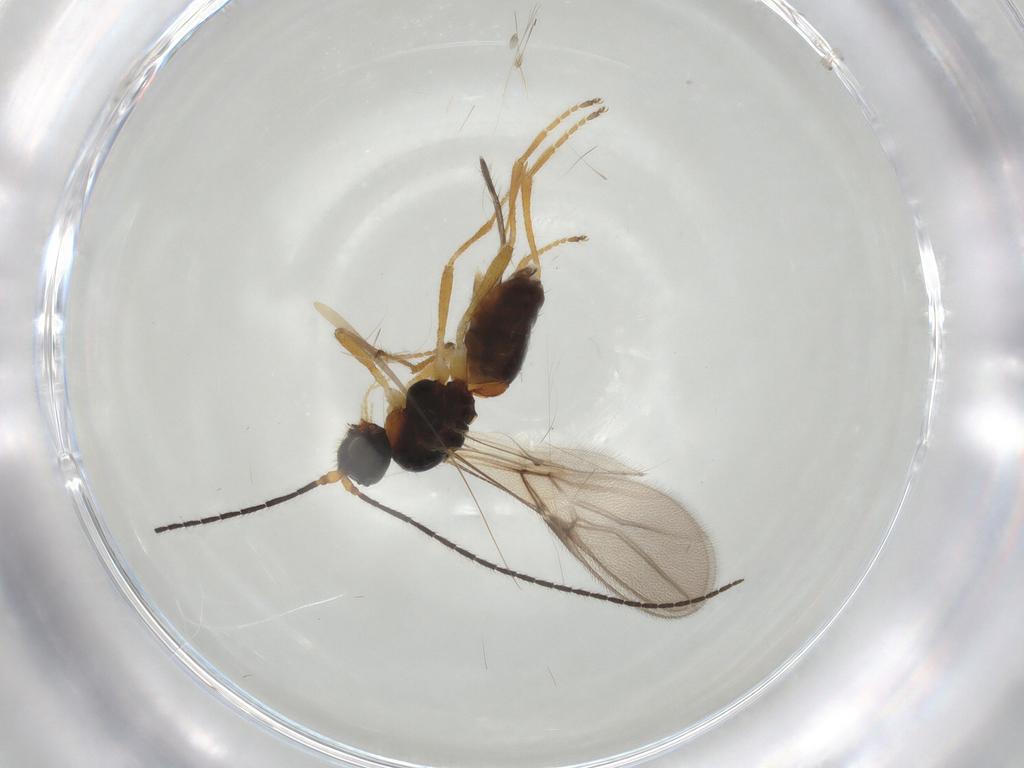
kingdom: Animalia
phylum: Arthropoda
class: Insecta
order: Hymenoptera
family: Braconidae
